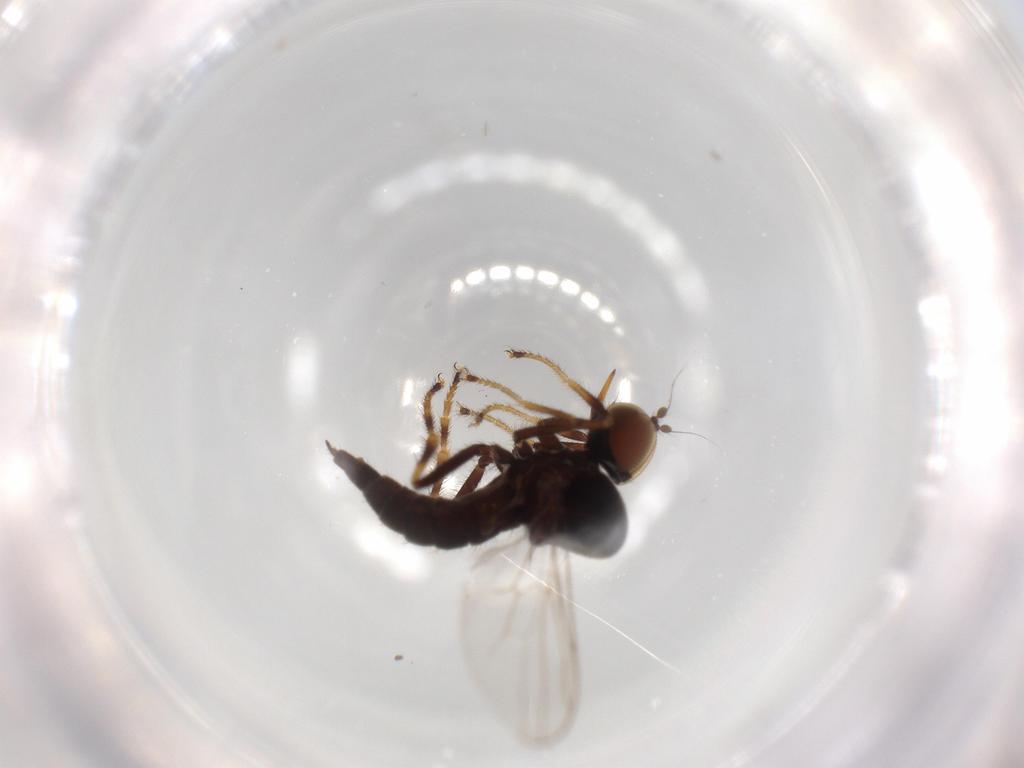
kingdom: Animalia
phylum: Arthropoda
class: Insecta
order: Diptera
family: Hybotidae
